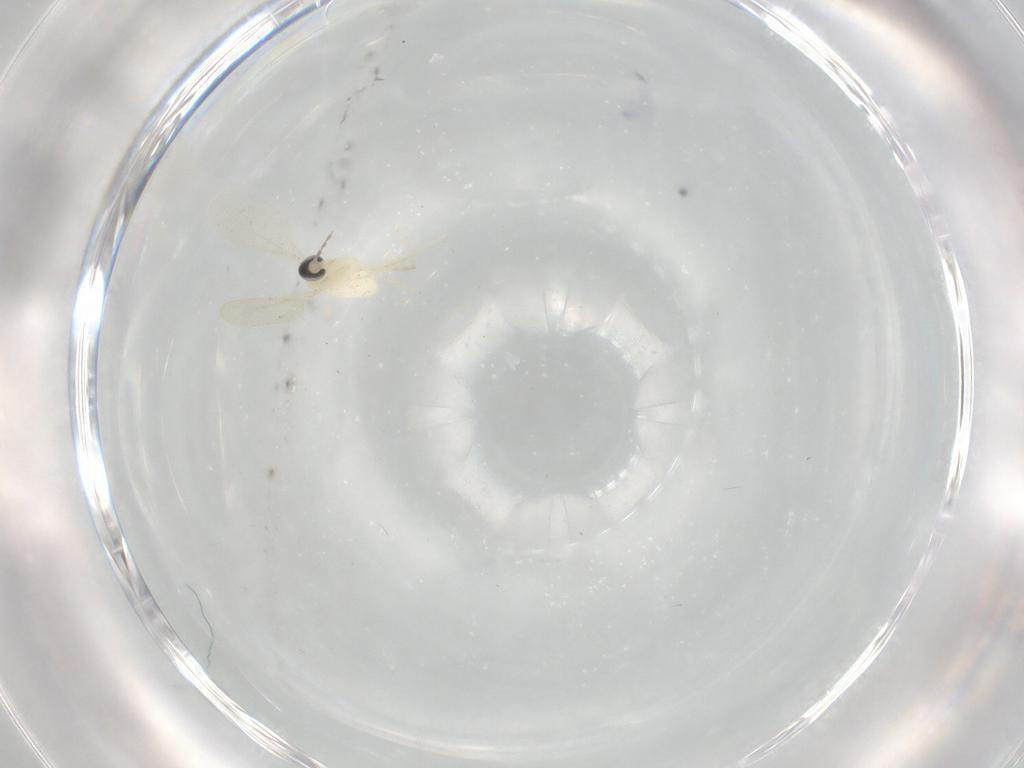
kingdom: Animalia
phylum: Arthropoda
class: Insecta
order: Diptera
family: Cecidomyiidae
